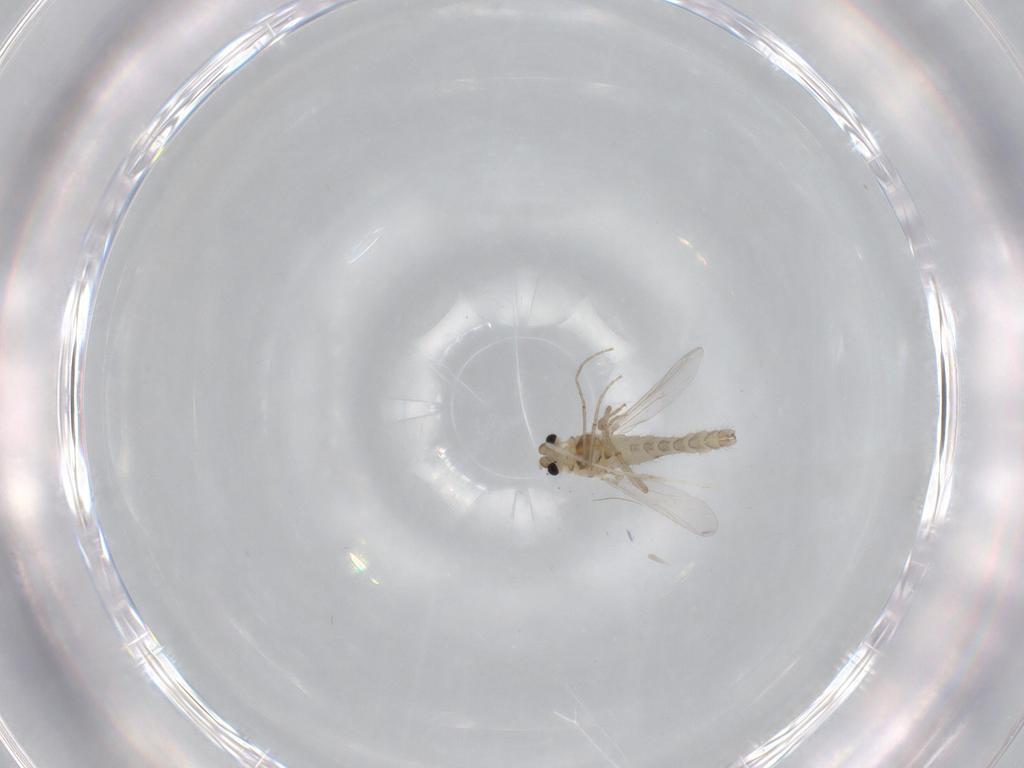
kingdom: Animalia
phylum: Arthropoda
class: Insecta
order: Diptera
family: Chironomidae
